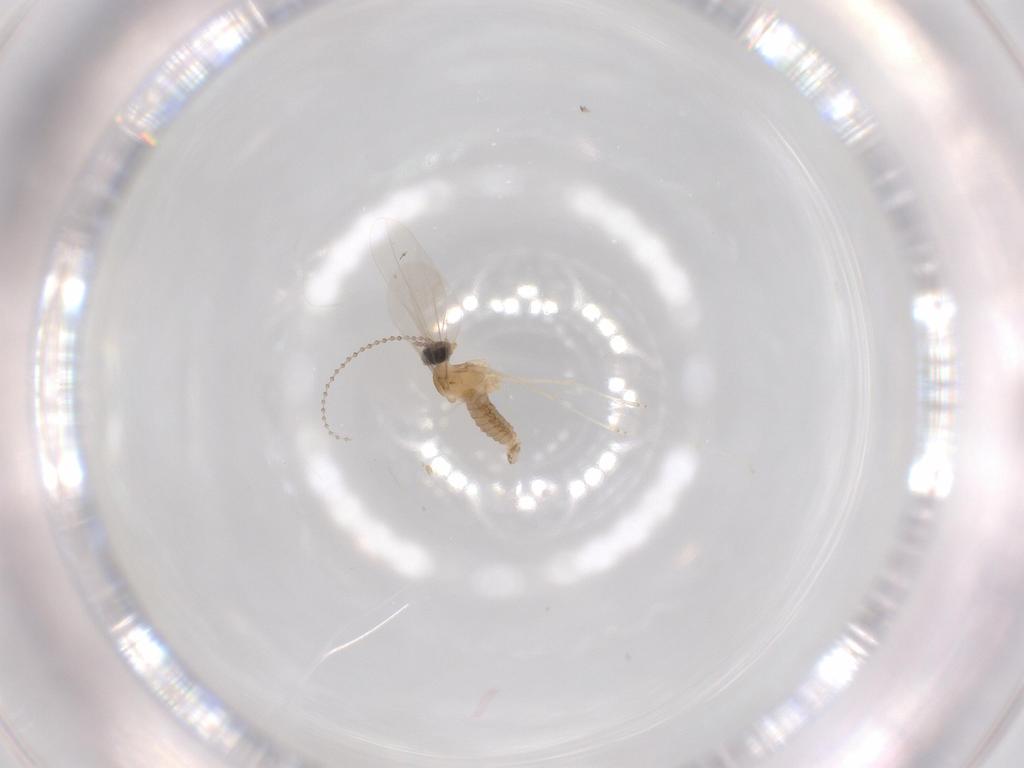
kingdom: Animalia
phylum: Arthropoda
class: Insecta
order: Diptera
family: Cecidomyiidae
